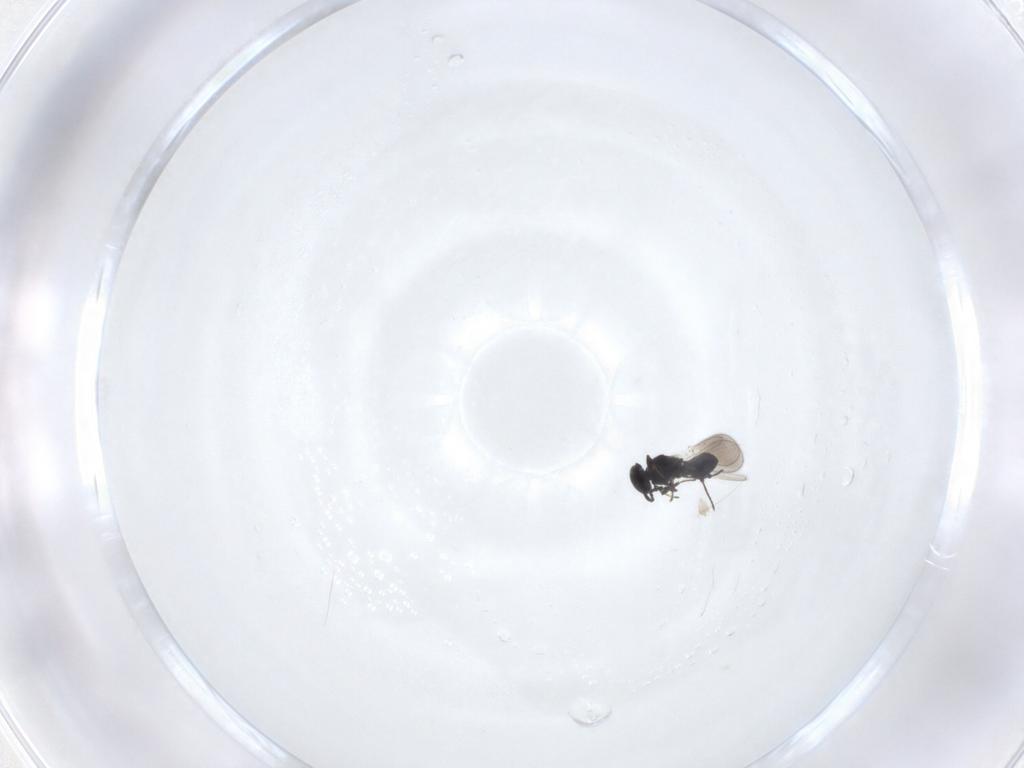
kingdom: Animalia
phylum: Arthropoda
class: Insecta
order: Hymenoptera
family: Platygastridae
